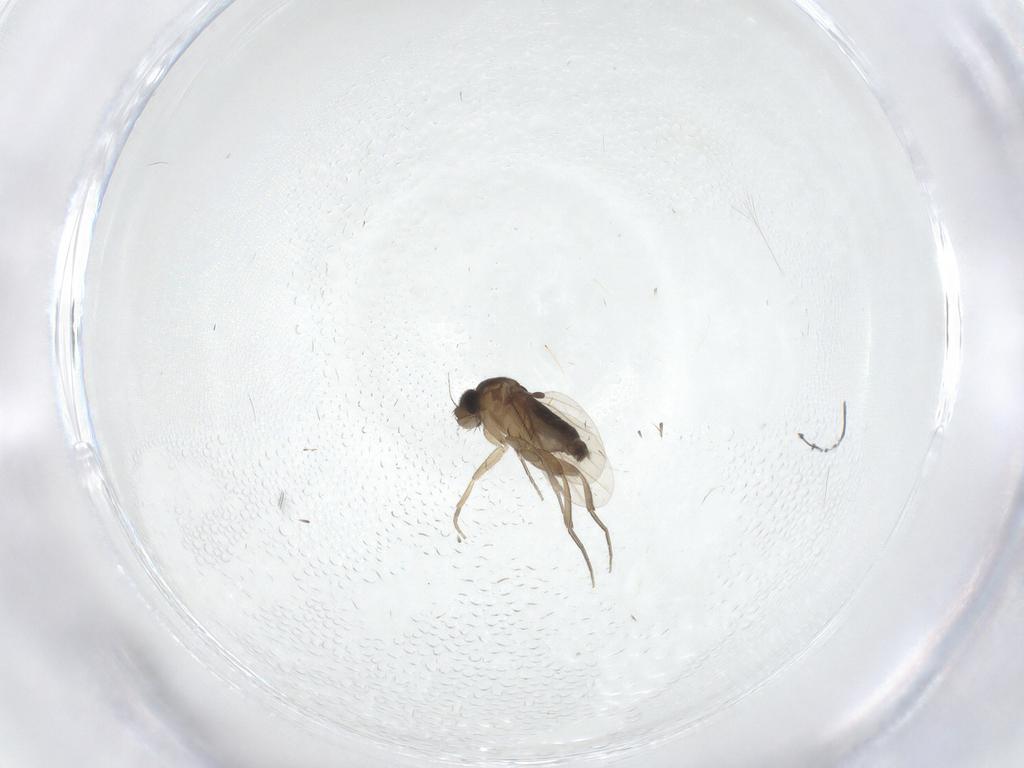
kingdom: Animalia
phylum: Arthropoda
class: Insecta
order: Diptera
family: Phoridae
